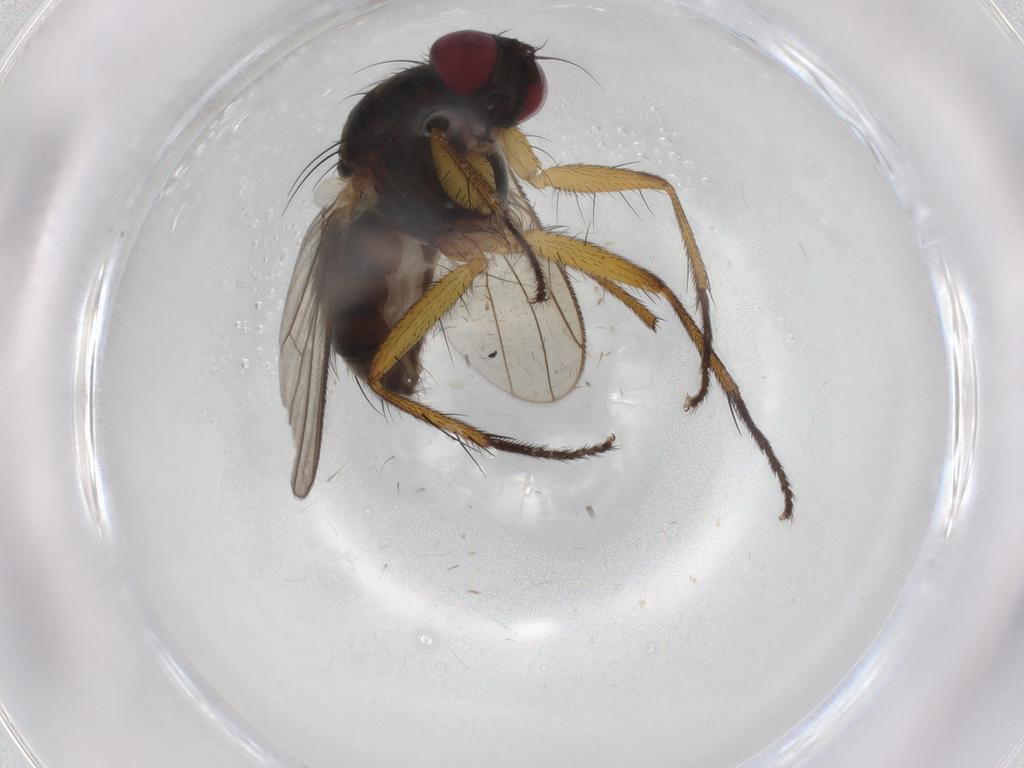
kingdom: Animalia
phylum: Arthropoda
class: Insecta
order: Diptera
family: Muscidae
